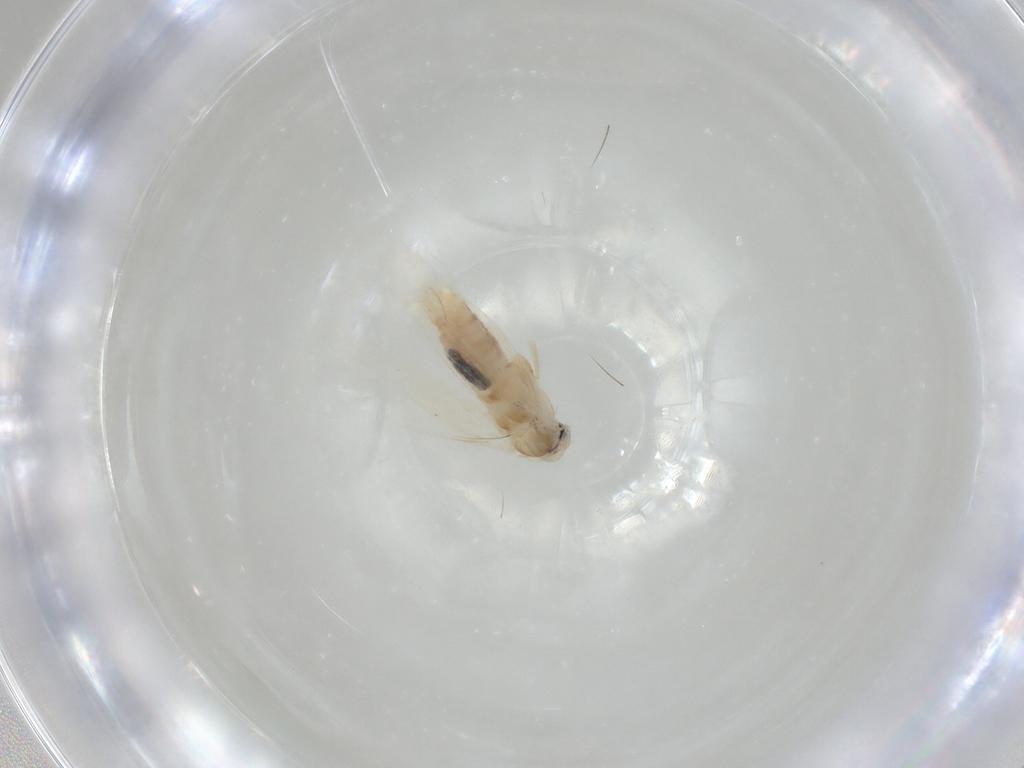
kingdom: Animalia
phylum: Arthropoda
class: Insecta
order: Lepidoptera
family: Bucculatricidae
